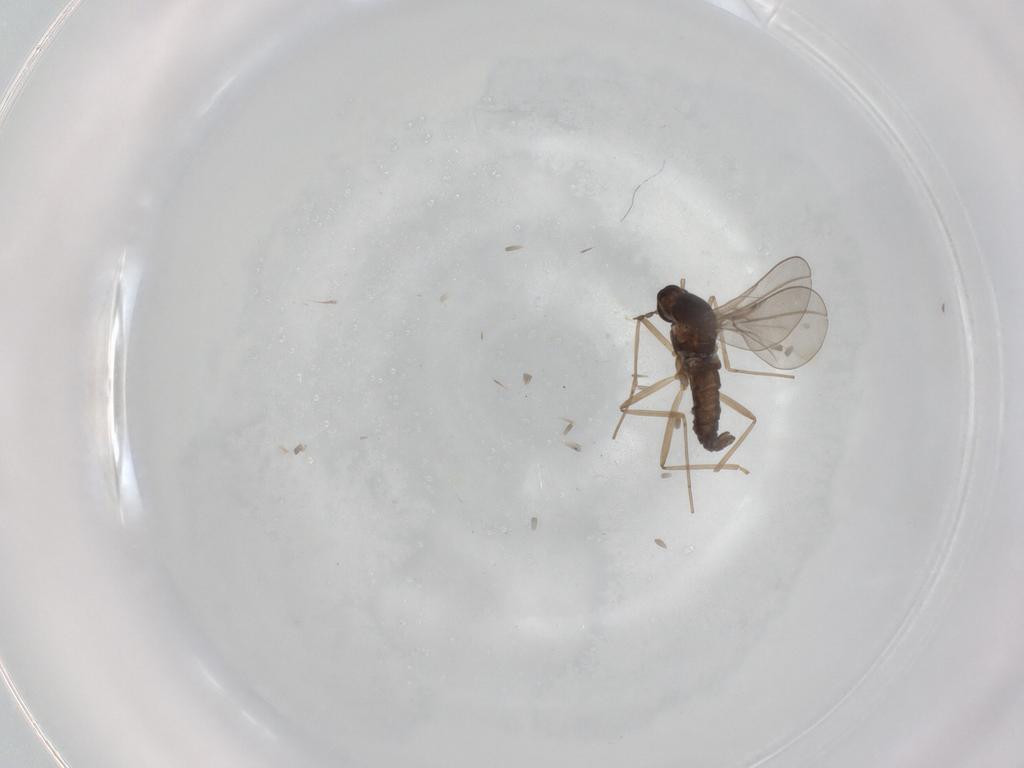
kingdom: Animalia
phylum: Arthropoda
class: Insecta
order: Diptera
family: Cecidomyiidae
